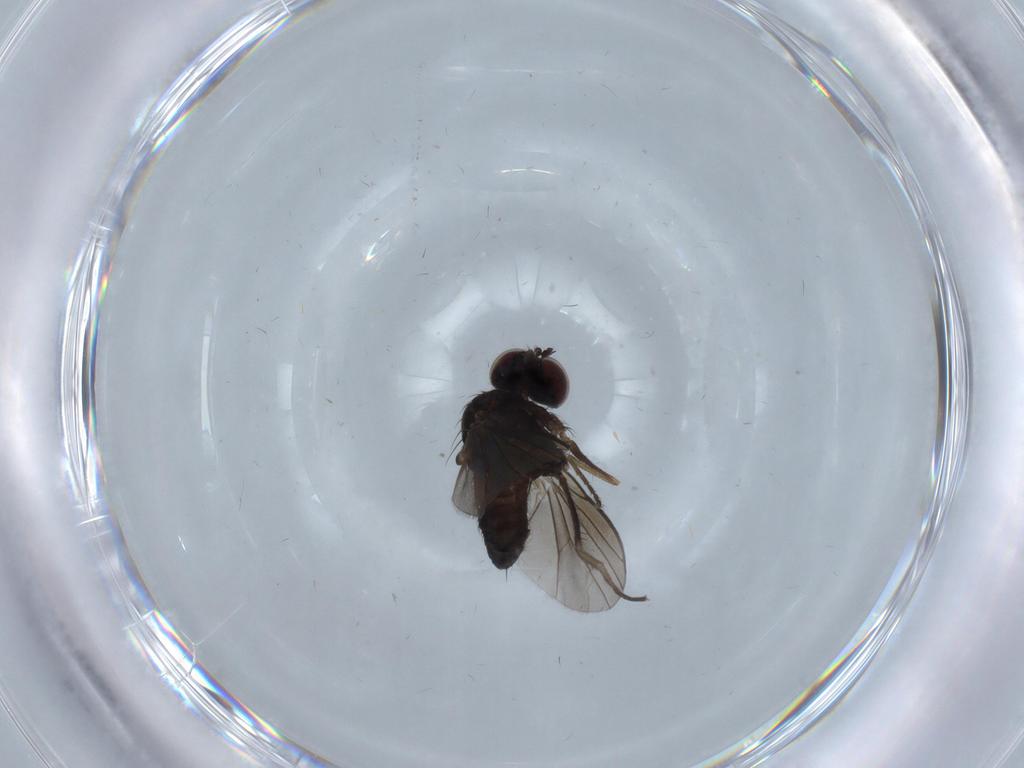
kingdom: Animalia
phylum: Arthropoda
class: Insecta
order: Diptera
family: Dolichopodidae
